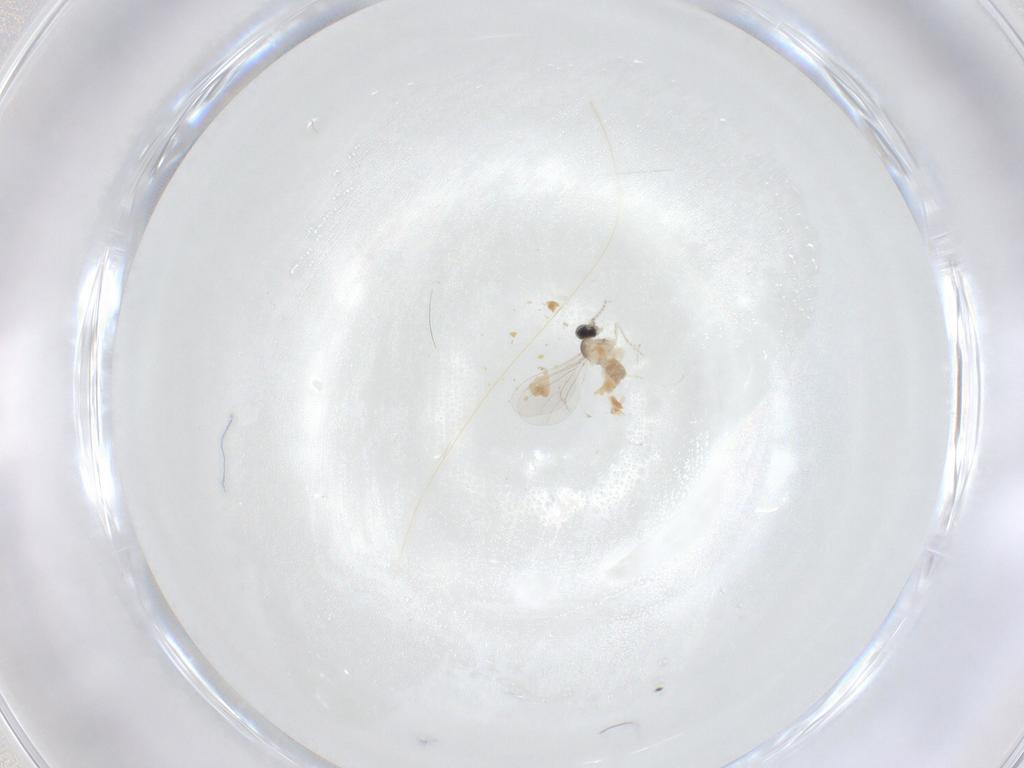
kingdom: Animalia
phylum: Arthropoda
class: Insecta
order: Diptera
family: Cecidomyiidae
